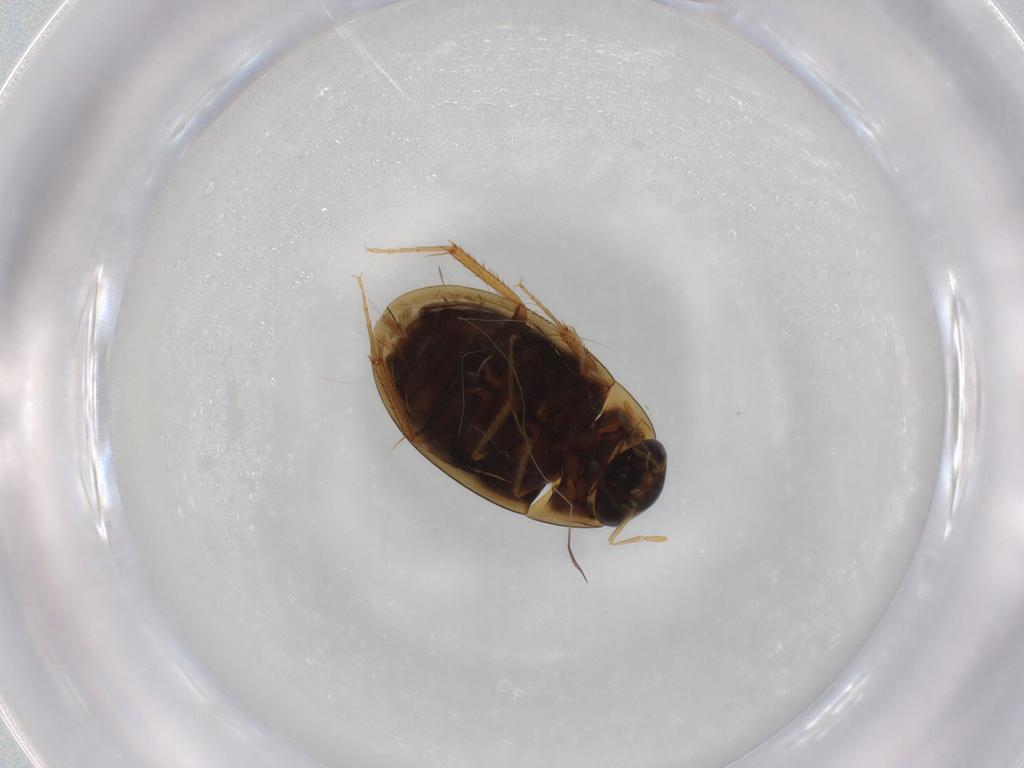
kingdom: Animalia
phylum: Arthropoda
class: Insecta
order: Coleoptera
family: Hydrophilidae
